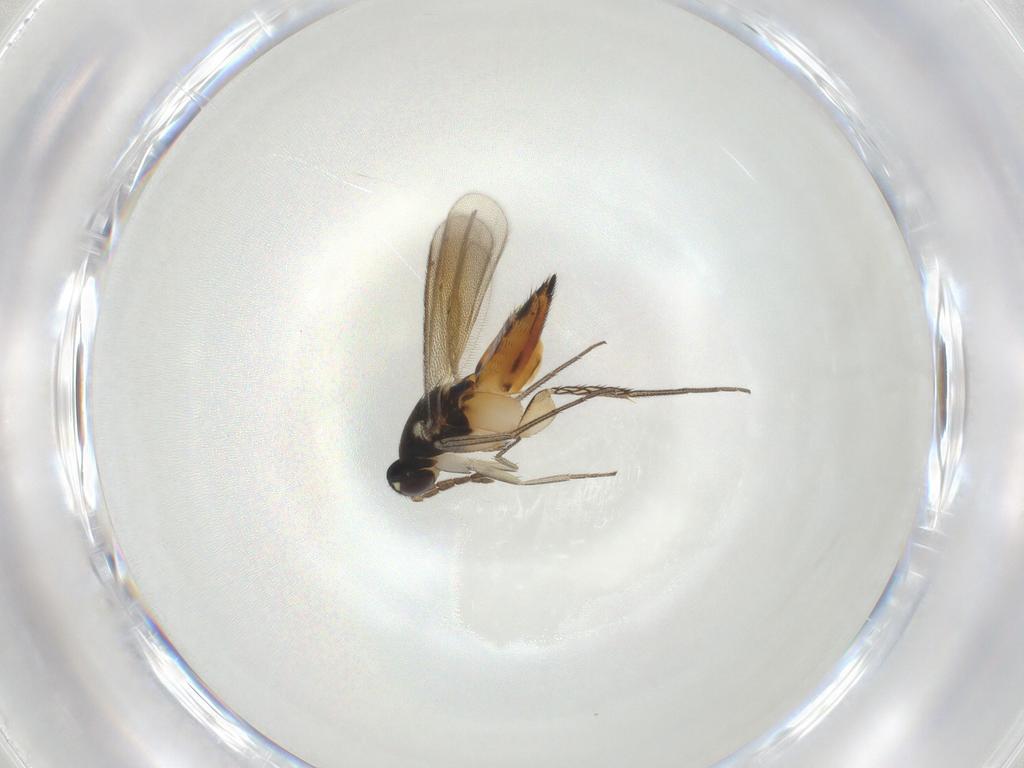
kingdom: Animalia
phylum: Arthropoda
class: Insecta
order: Hymenoptera
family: Eulophidae
